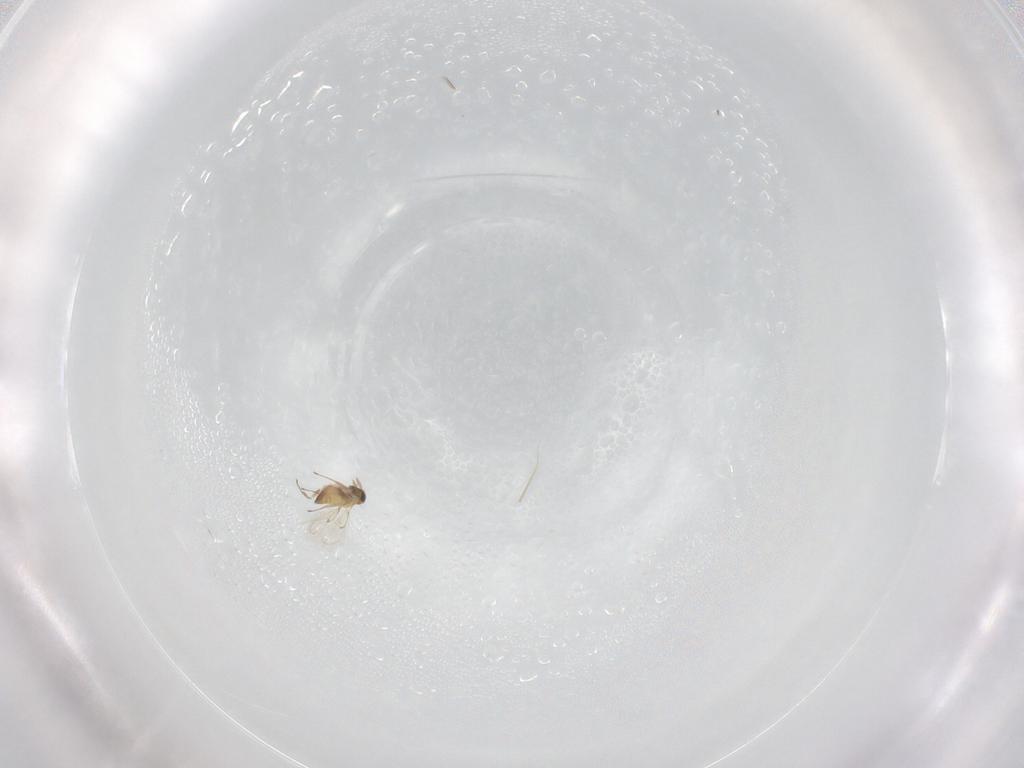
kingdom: Animalia
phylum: Arthropoda
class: Insecta
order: Hymenoptera
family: Trichogrammatidae
